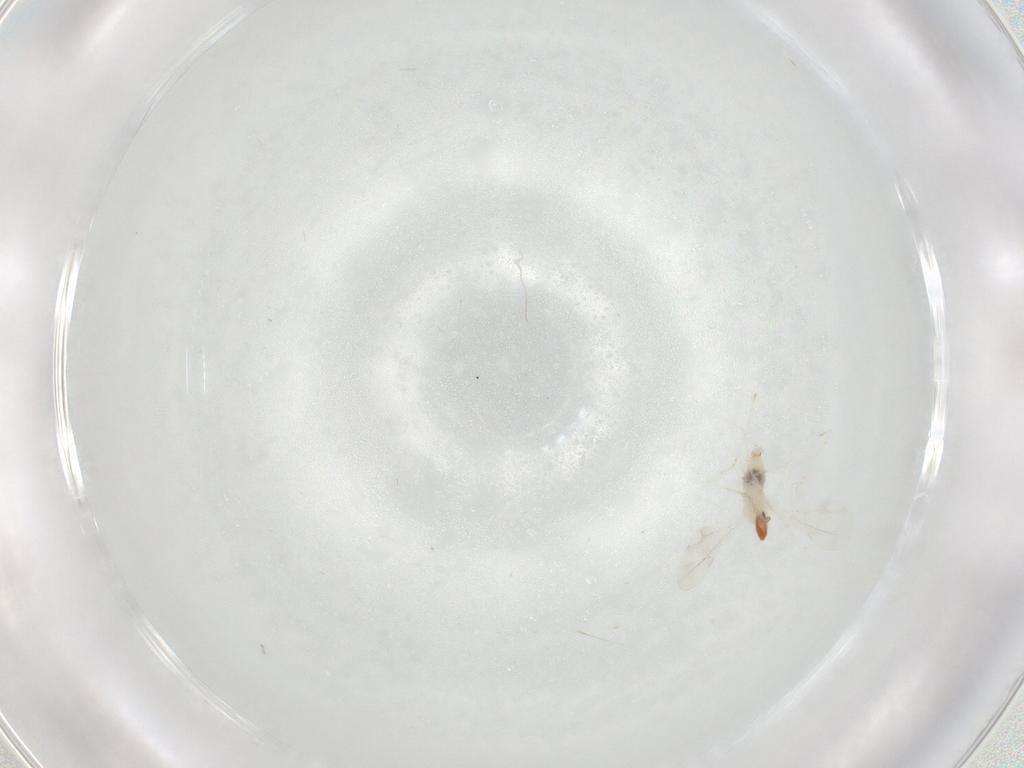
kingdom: Animalia
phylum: Arthropoda
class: Insecta
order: Diptera
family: Cecidomyiidae
